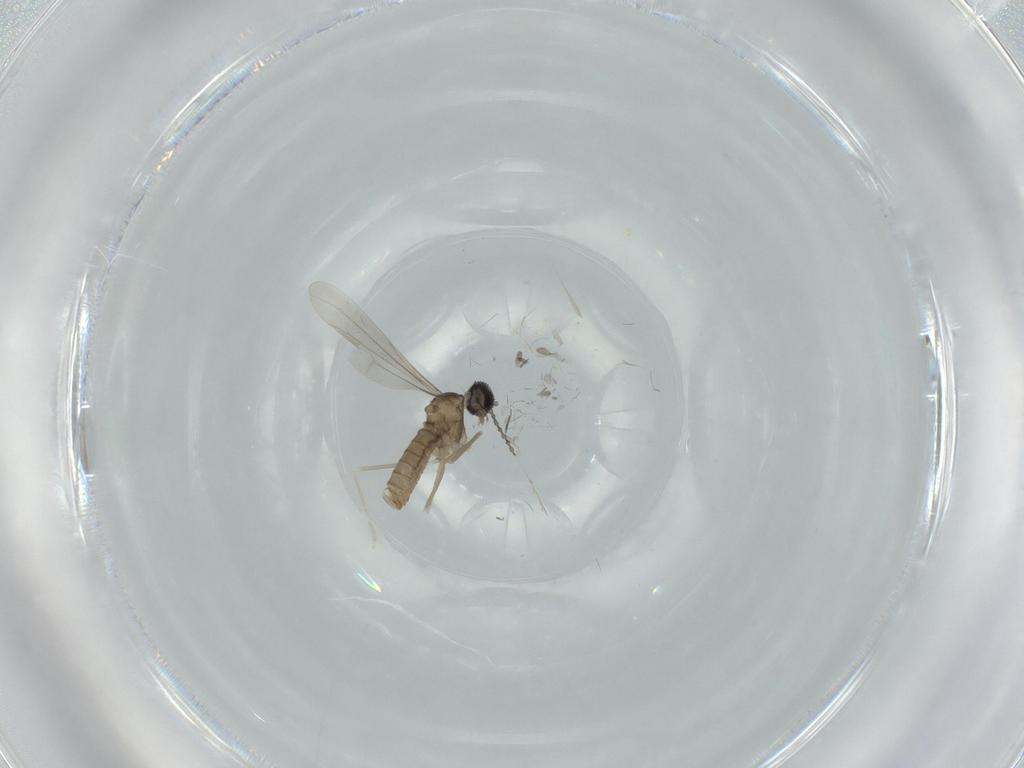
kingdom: Animalia
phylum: Arthropoda
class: Insecta
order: Diptera
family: Cecidomyiidae
